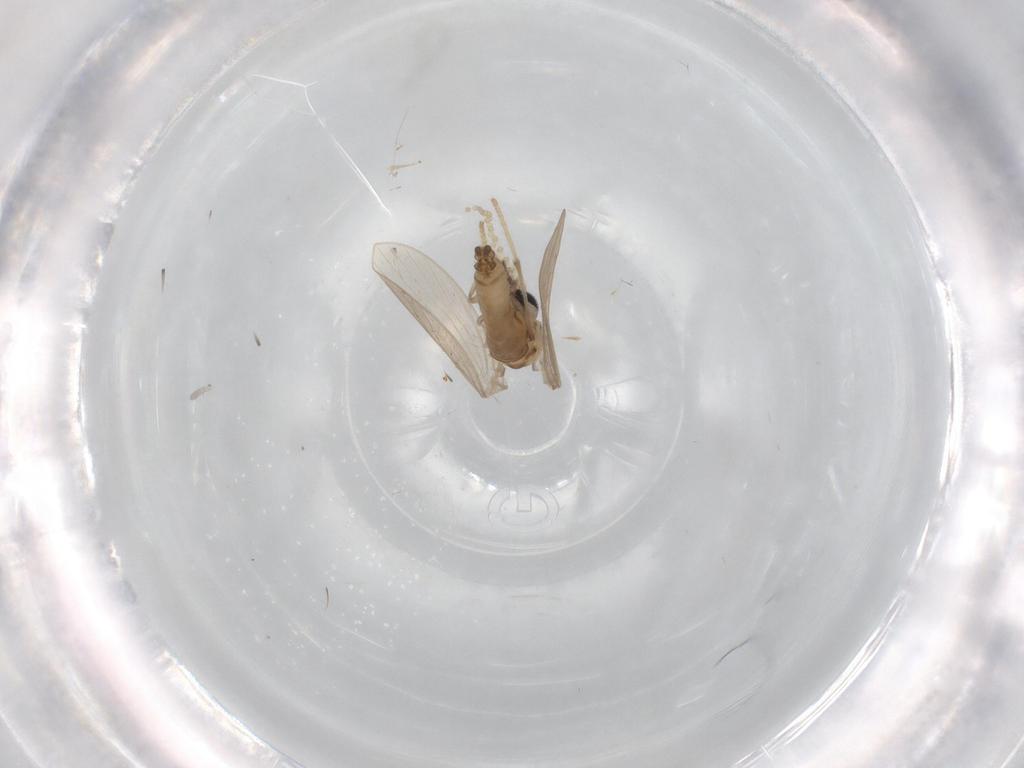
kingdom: Animalia
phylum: Arthropoda
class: Insecta
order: Diptera
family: Psychodidae
